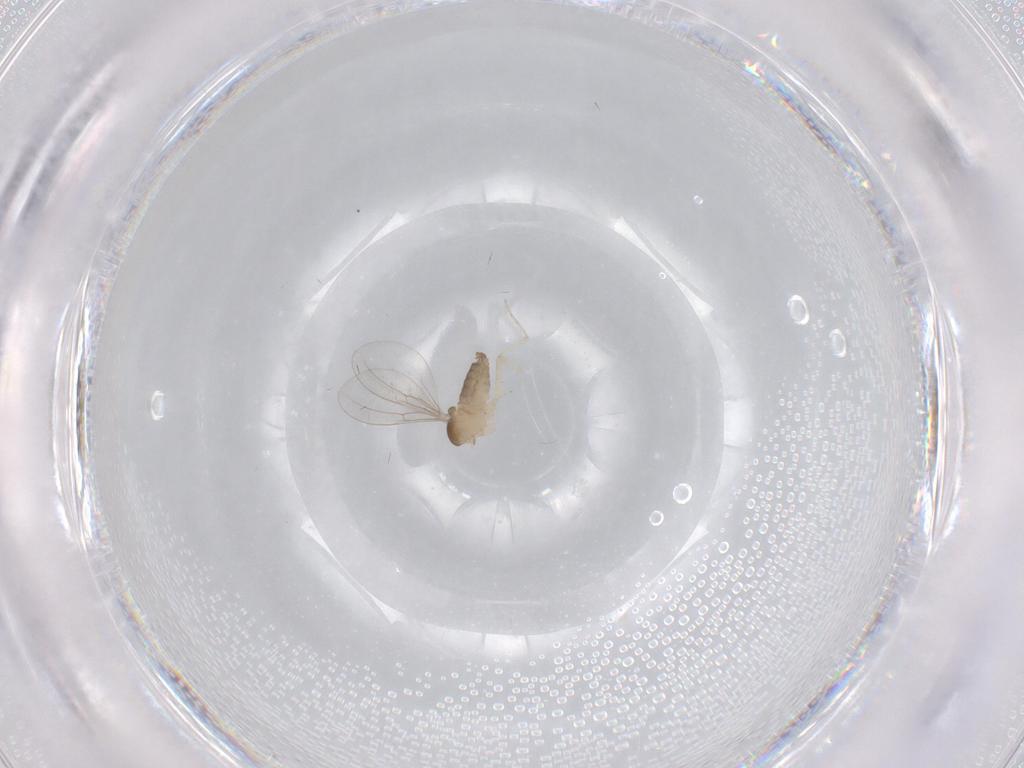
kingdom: Animalia
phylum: Arthropoda
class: Insecta
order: Diptera
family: Cecidomyiidae
